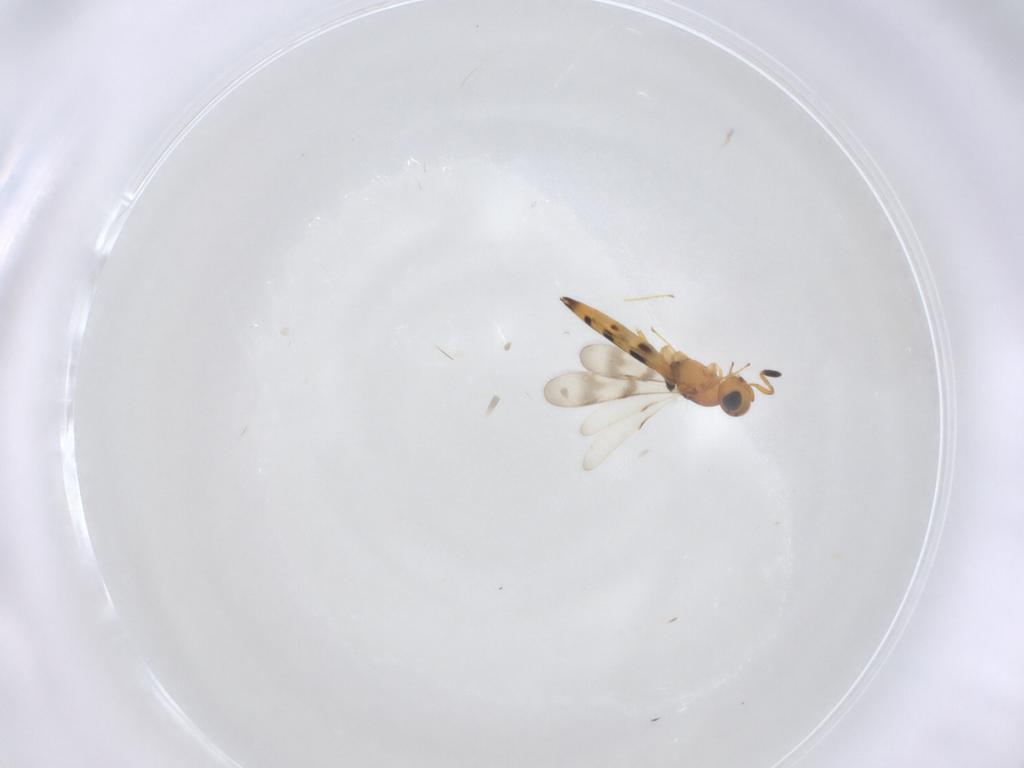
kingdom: Animalia
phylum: Arthropoda
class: Insecta
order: Hymenoptera
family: Scelionidae
